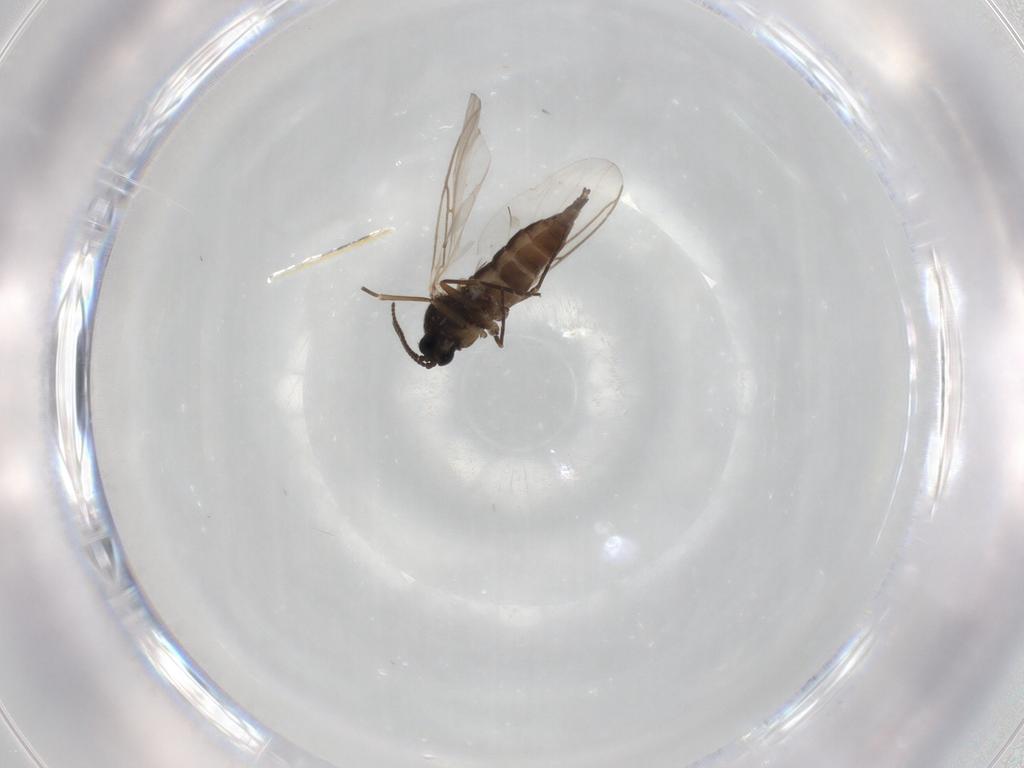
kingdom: Animalia
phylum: Arthropoda
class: Insecta
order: Diptera
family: Sciaridae
